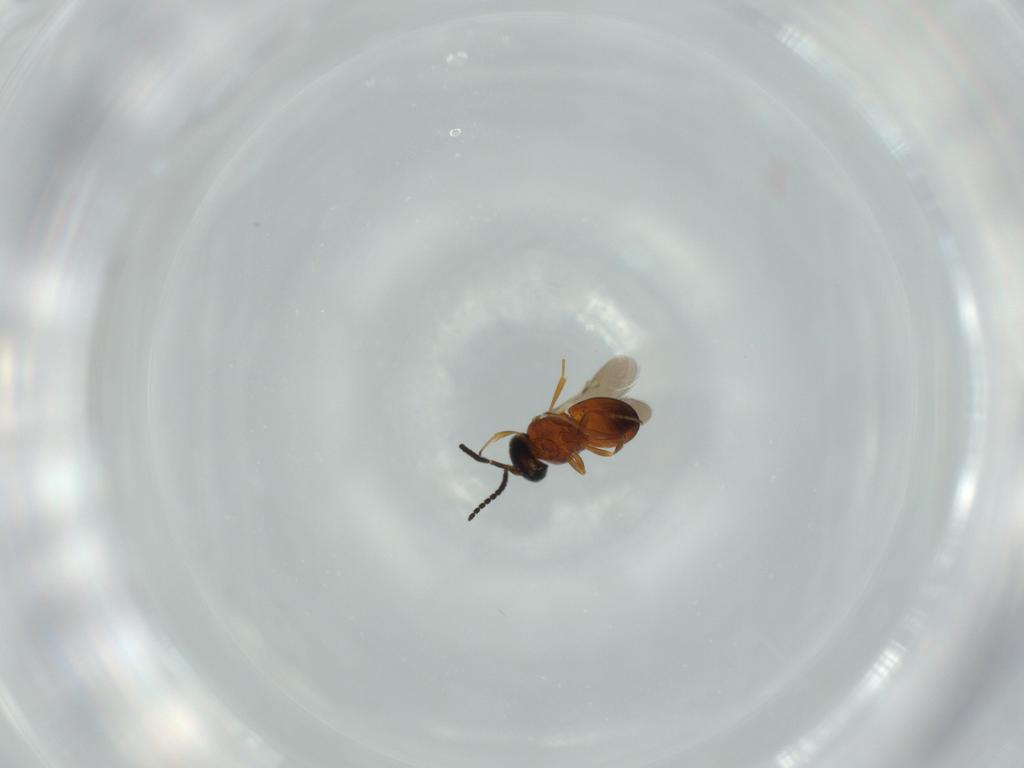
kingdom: Animalia
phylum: Arthropoda
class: Insecta
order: Hymenoptera
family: Scelionidae
